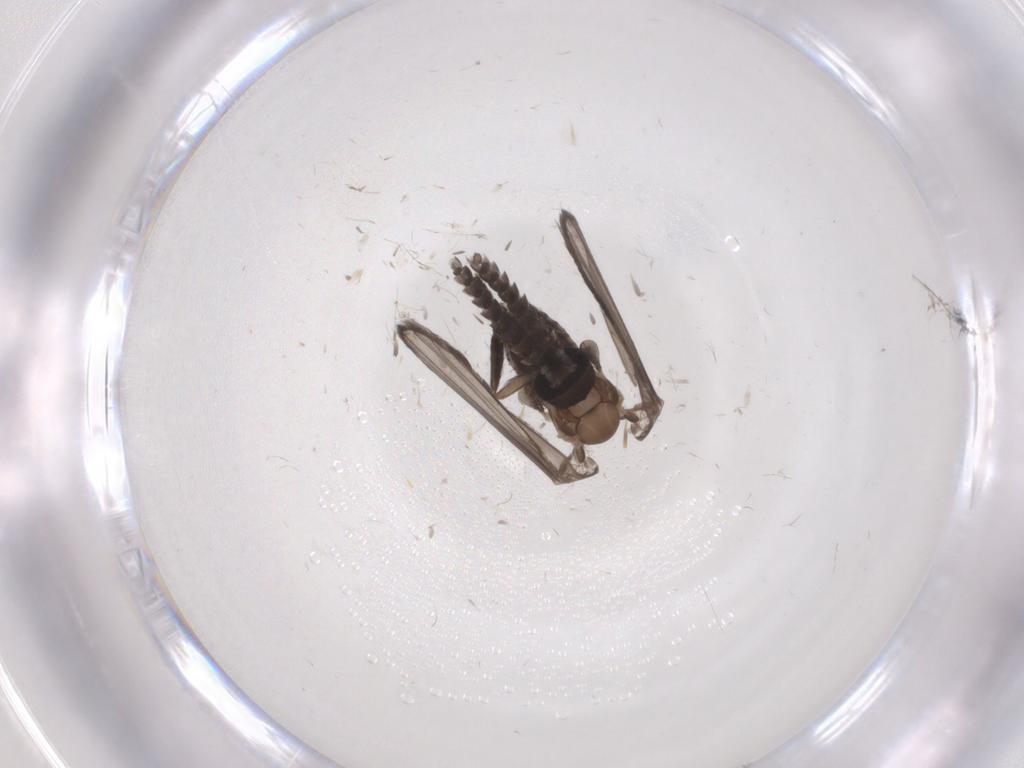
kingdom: Animalia
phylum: Arthropoda
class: Insecta
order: Diptera
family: Psychodidae
